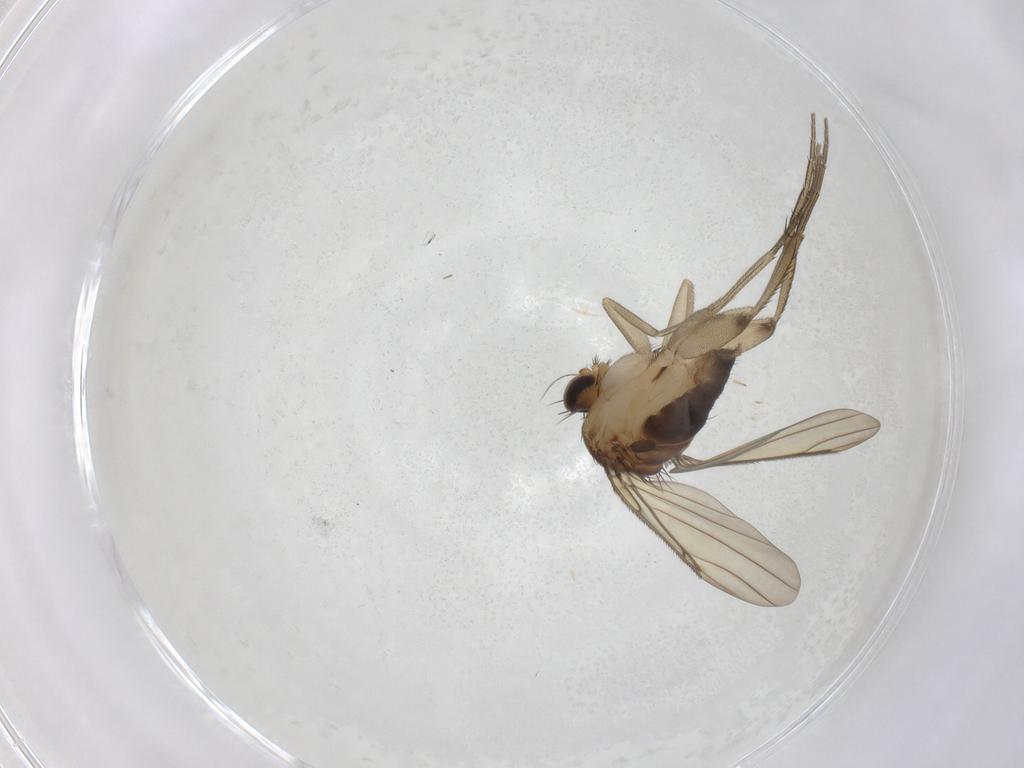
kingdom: Animalia
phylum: Arthropoda
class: Insecta
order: Diptera
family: Phoridae
